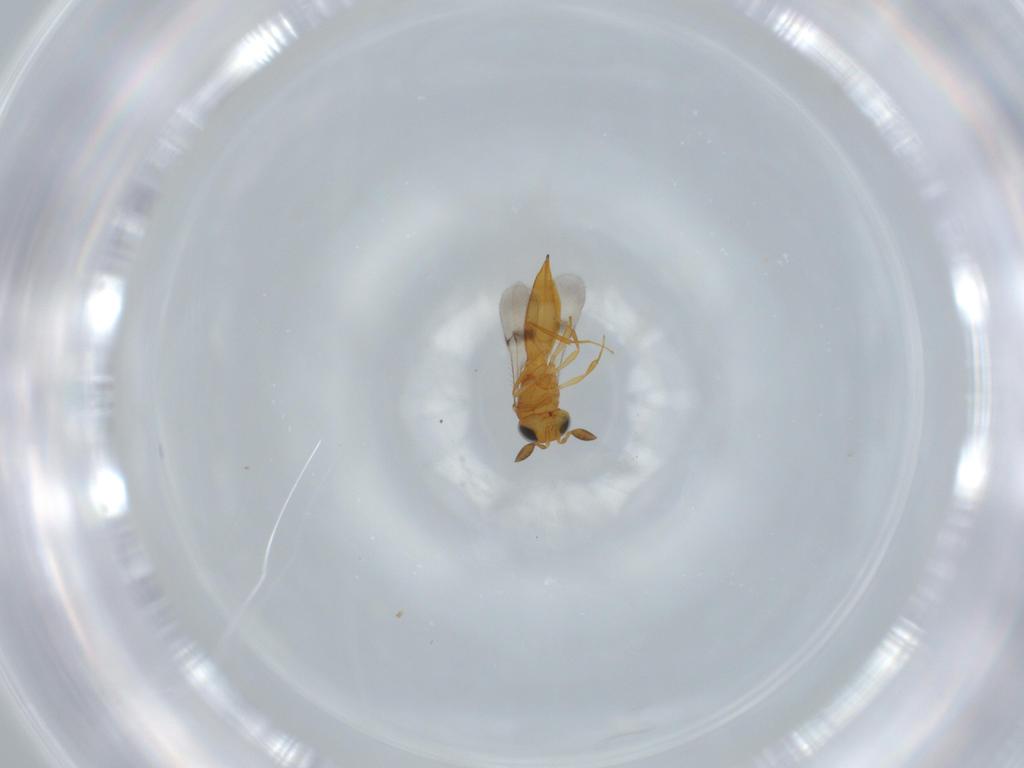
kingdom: Animalia
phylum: Arthropoda
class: Insecta
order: Hymenoptera
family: Scelionidae
